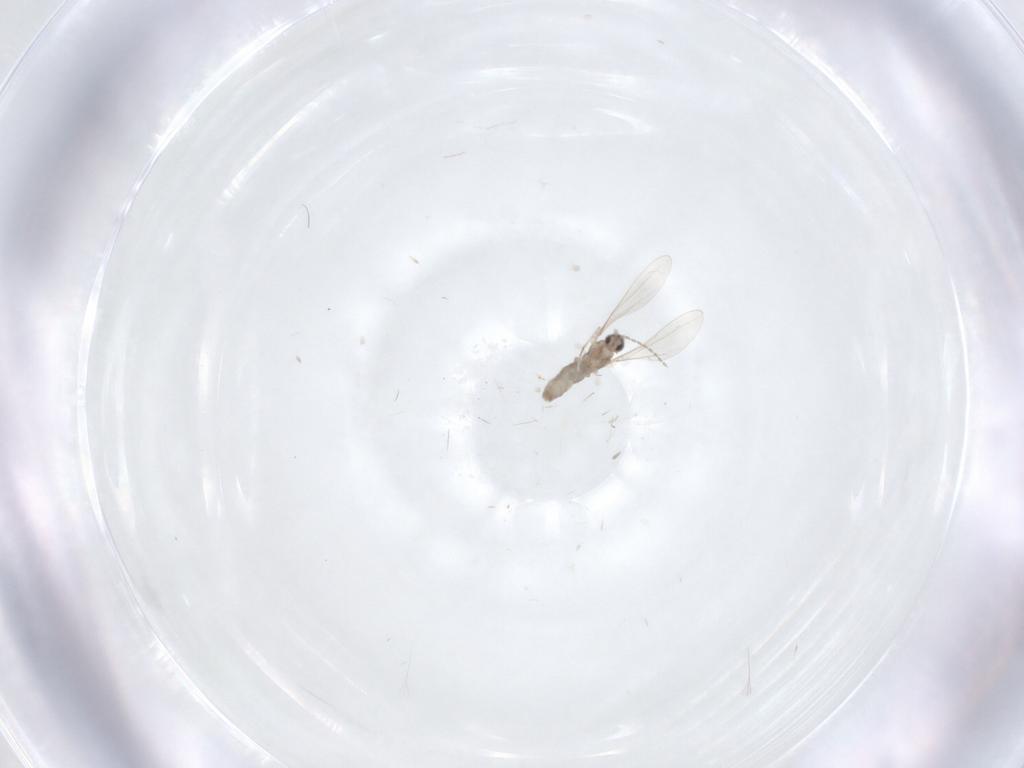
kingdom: Animalia
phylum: Arthropoda
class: Insecta
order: Diptera
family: Cecidomyiidae
